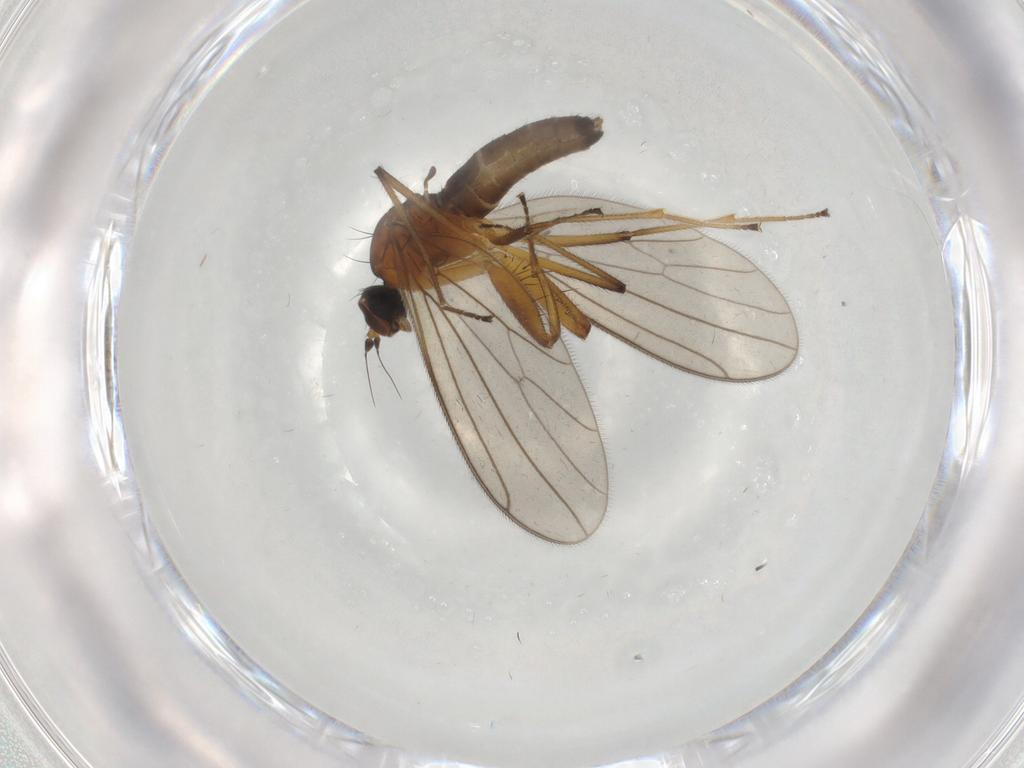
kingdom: Animalia
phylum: Arthropoda
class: Insecta
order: Diptera
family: Empididae
